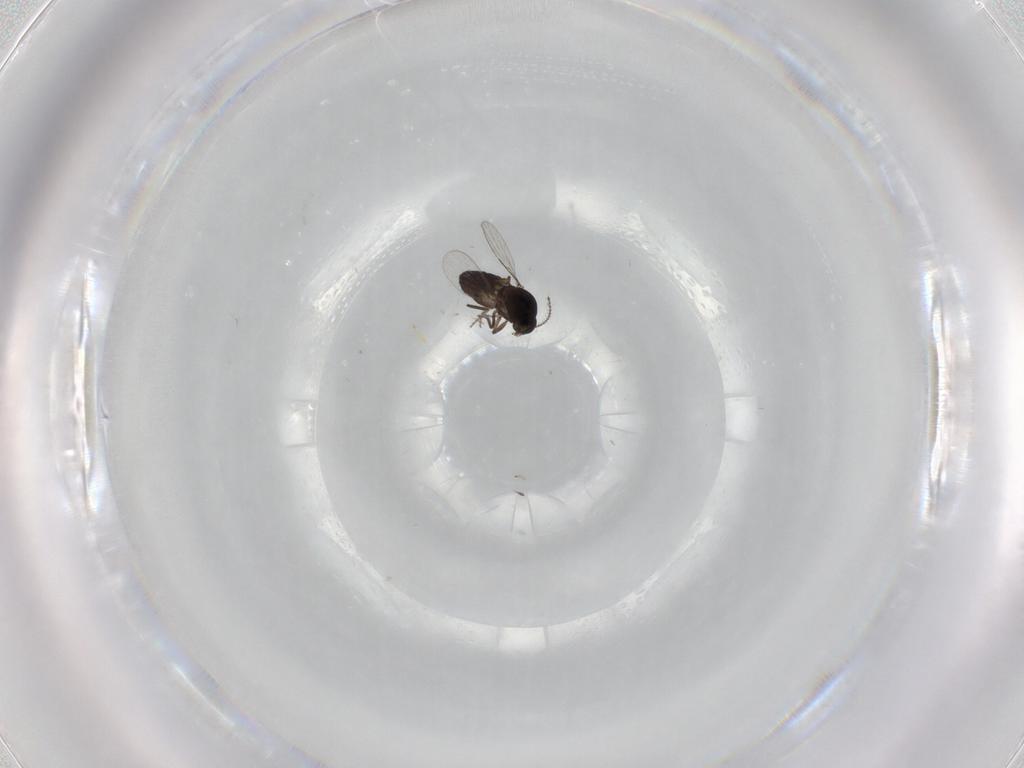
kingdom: Animalia
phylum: Arthropoda
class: Insecta
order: Diptera
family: Ceratopogonidae
